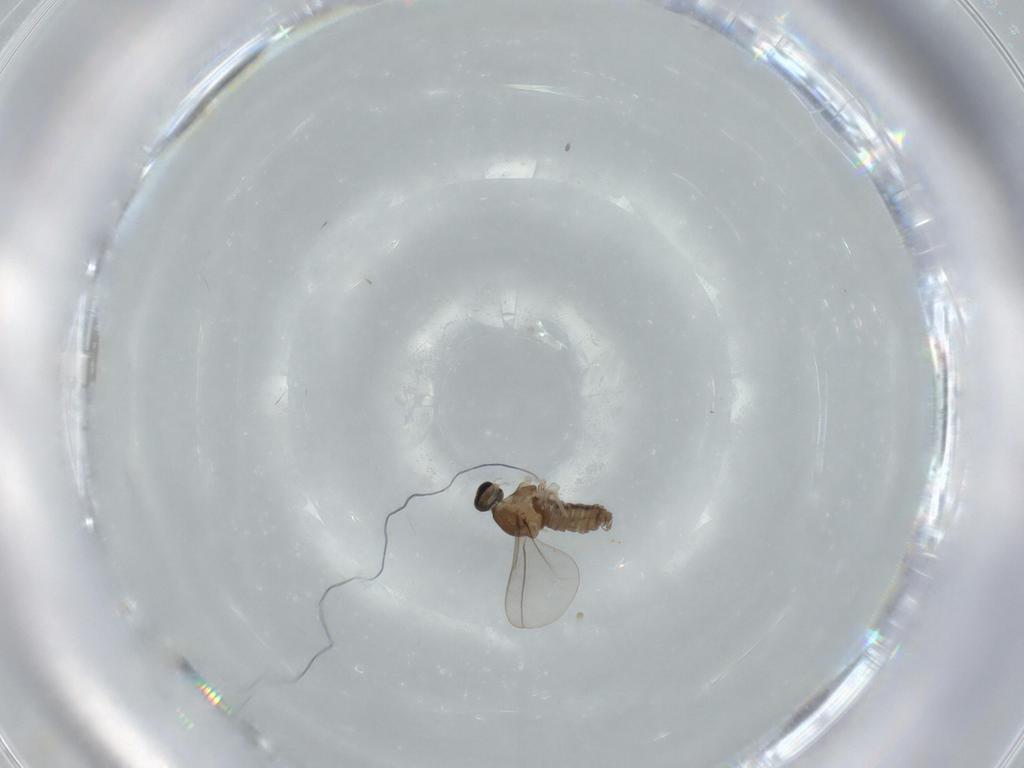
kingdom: Animalia
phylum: Arthropoda
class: Insecta
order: Diptera
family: Cecidomyiidae
